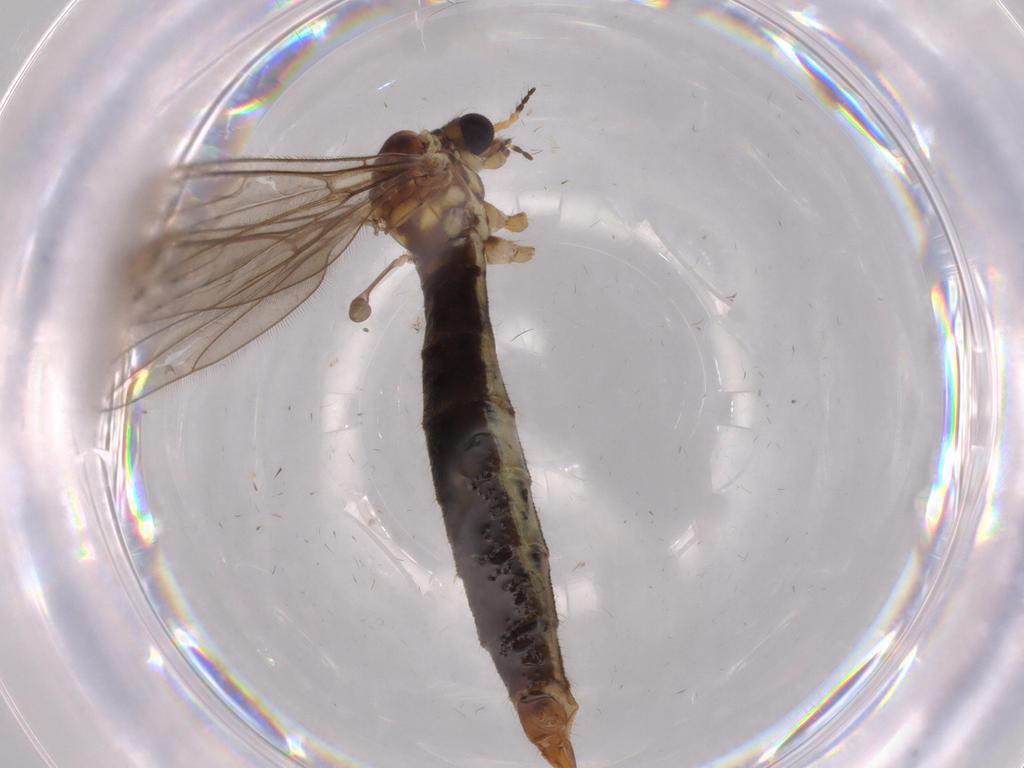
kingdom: Animalia
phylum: Arthropoda
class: Insecta
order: Diptera
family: Limoniidae
